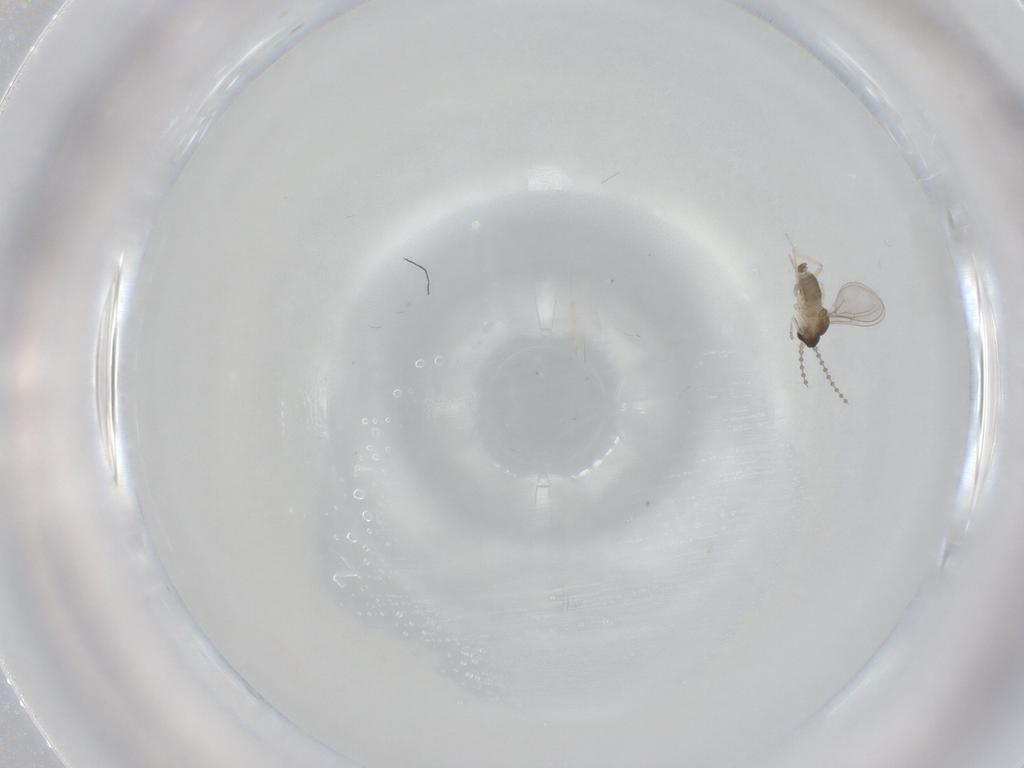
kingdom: Animalia
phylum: Arthropoda
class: Insecta
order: Diptera
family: Cecidomyiidae
